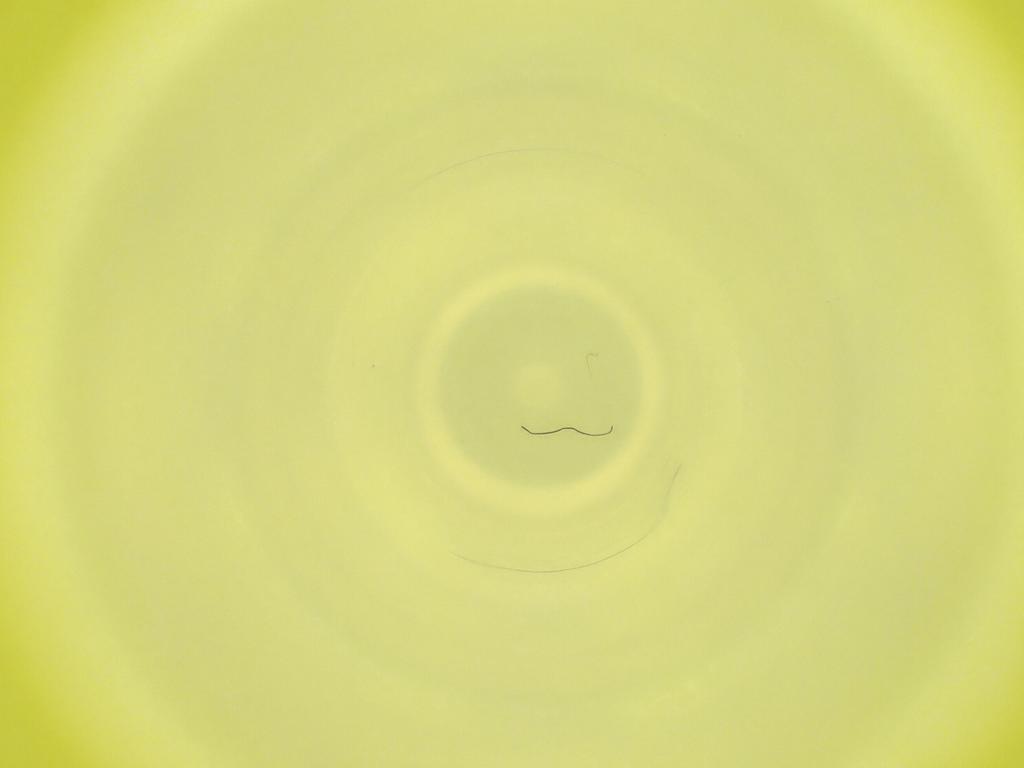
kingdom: Animalia
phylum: Arthropoda
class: Insecta
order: Diptera
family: Cecidomyiidae
